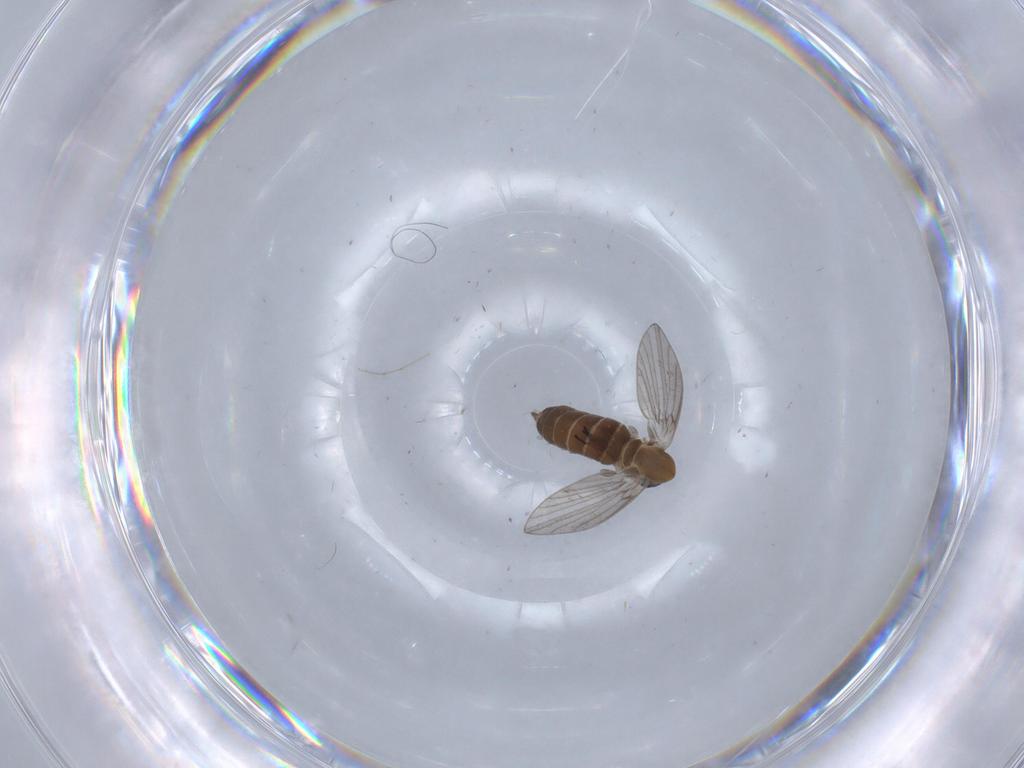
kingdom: Animalia
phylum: Arthropoda
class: Insecta
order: Diptera
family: Psychodidae
